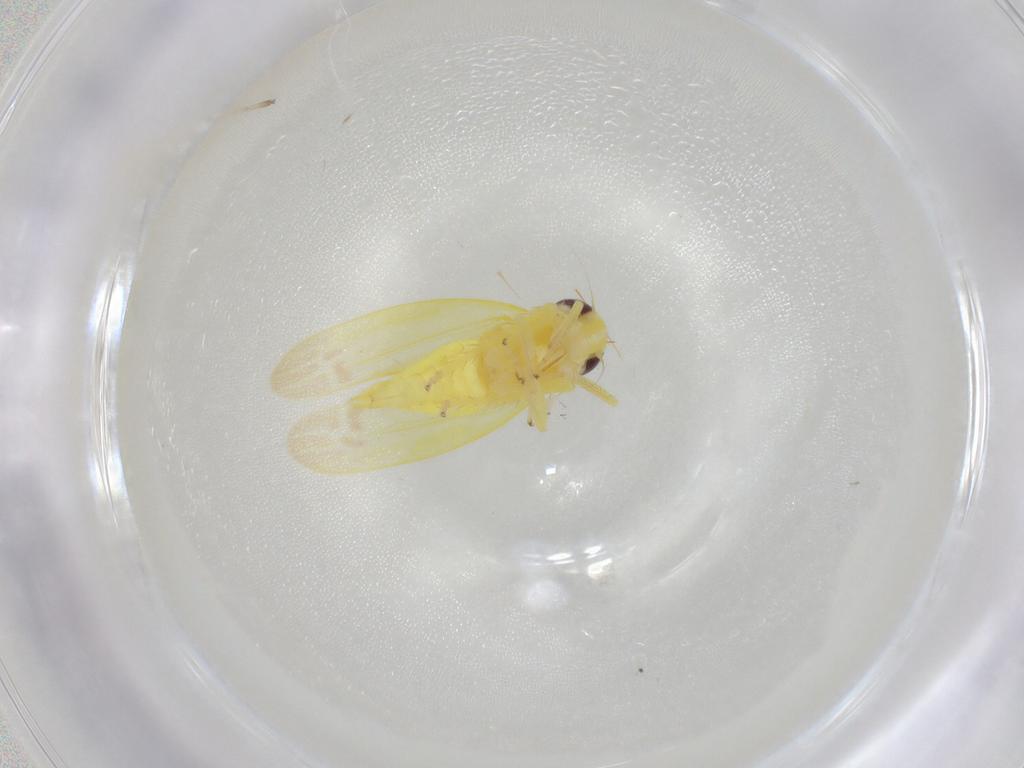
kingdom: Animalia
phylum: Arthropoda
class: Insecta
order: Hemiptera
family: Cicadellidae
